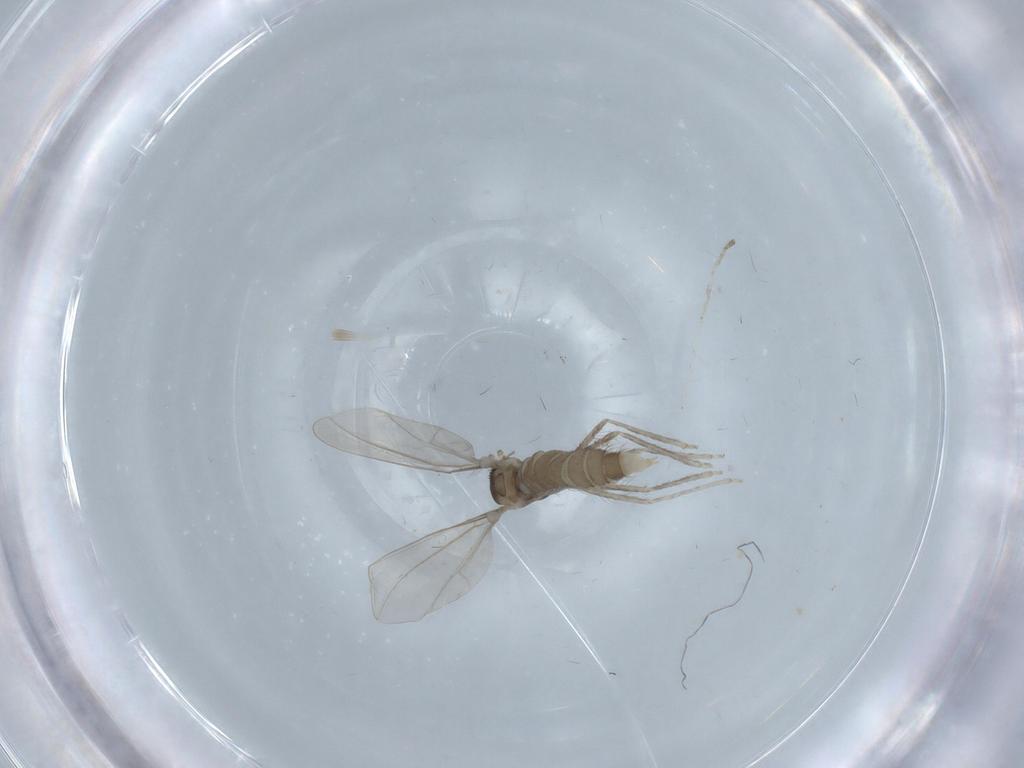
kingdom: Animalia
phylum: Arthropoda
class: Insecta
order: Diptera
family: Cecidomyiidae
